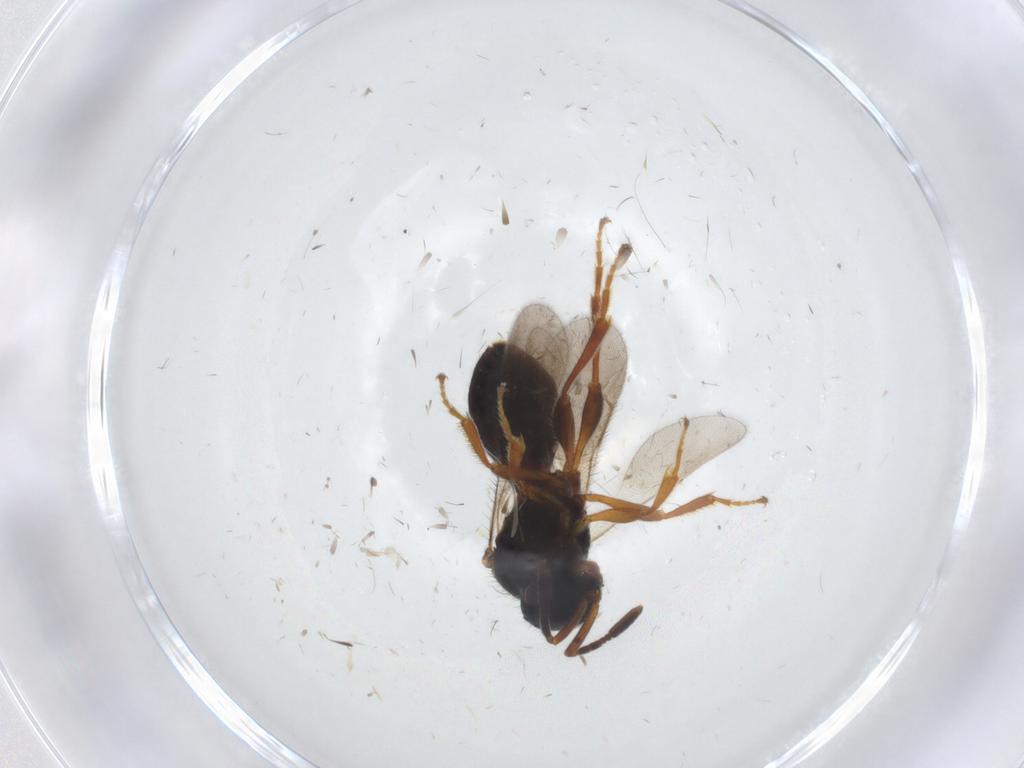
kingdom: Animalia
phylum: Arthropoda
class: Insecta
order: Hymenoptera
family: Scelionidae
